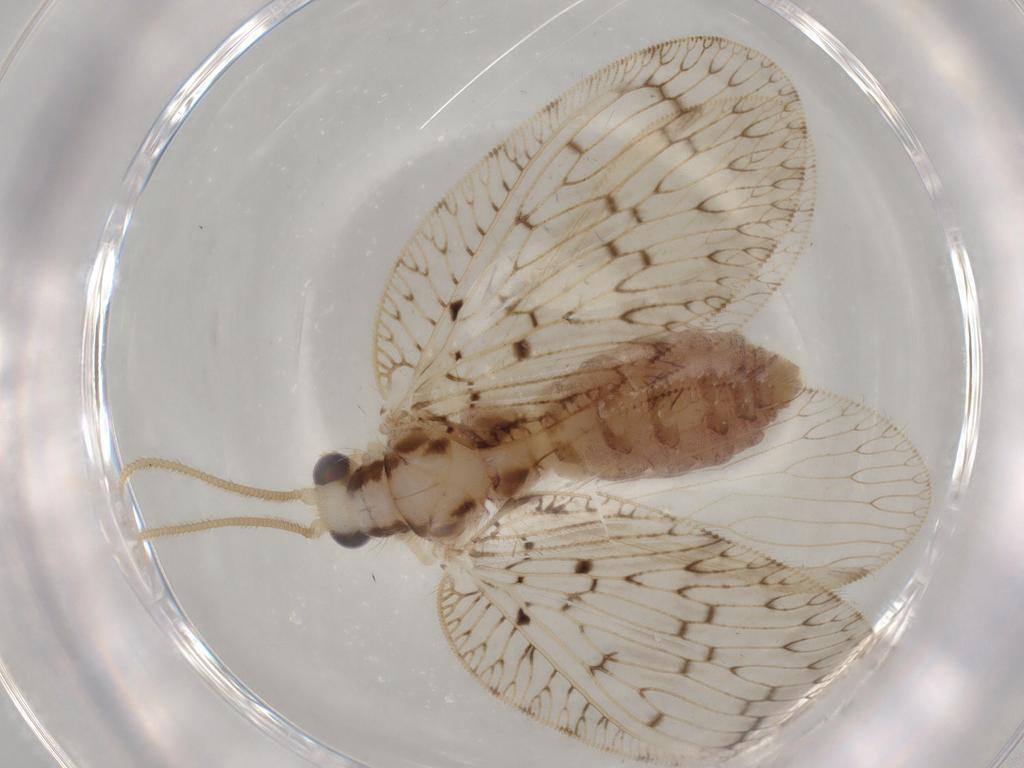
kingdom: Animalia
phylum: Arthropoda
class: Insecta
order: Neuroptera
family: Hemerobiidae
